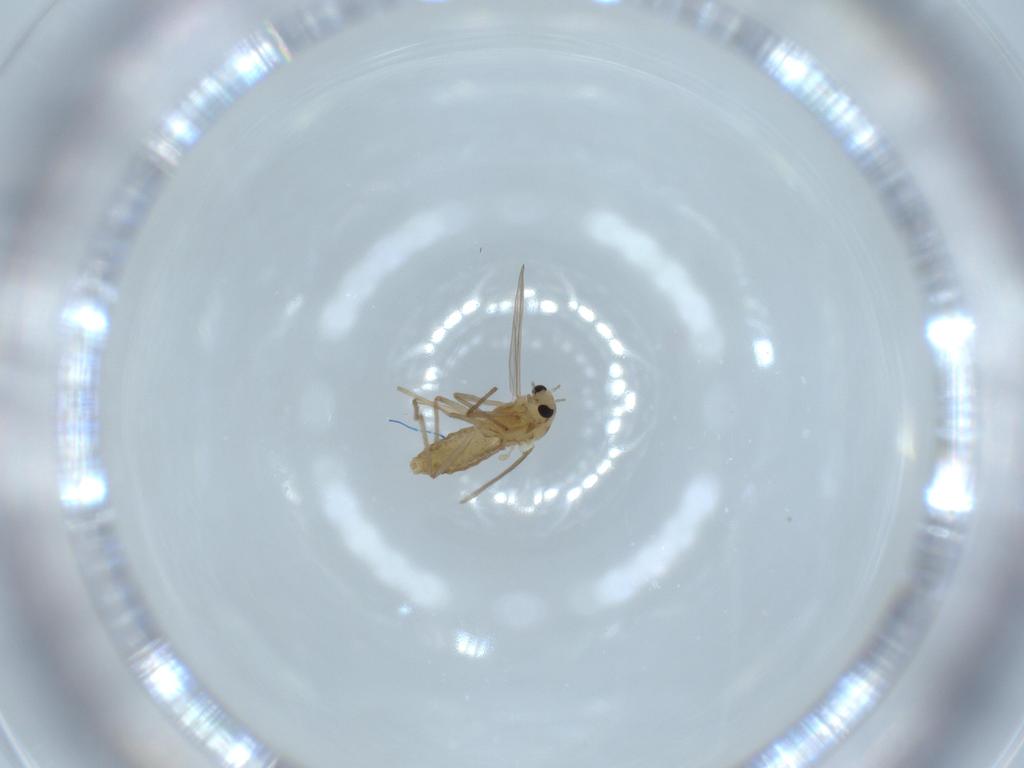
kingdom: Animalia
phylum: Arthropoda
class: Insecta
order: Diptera
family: Chironomidae
